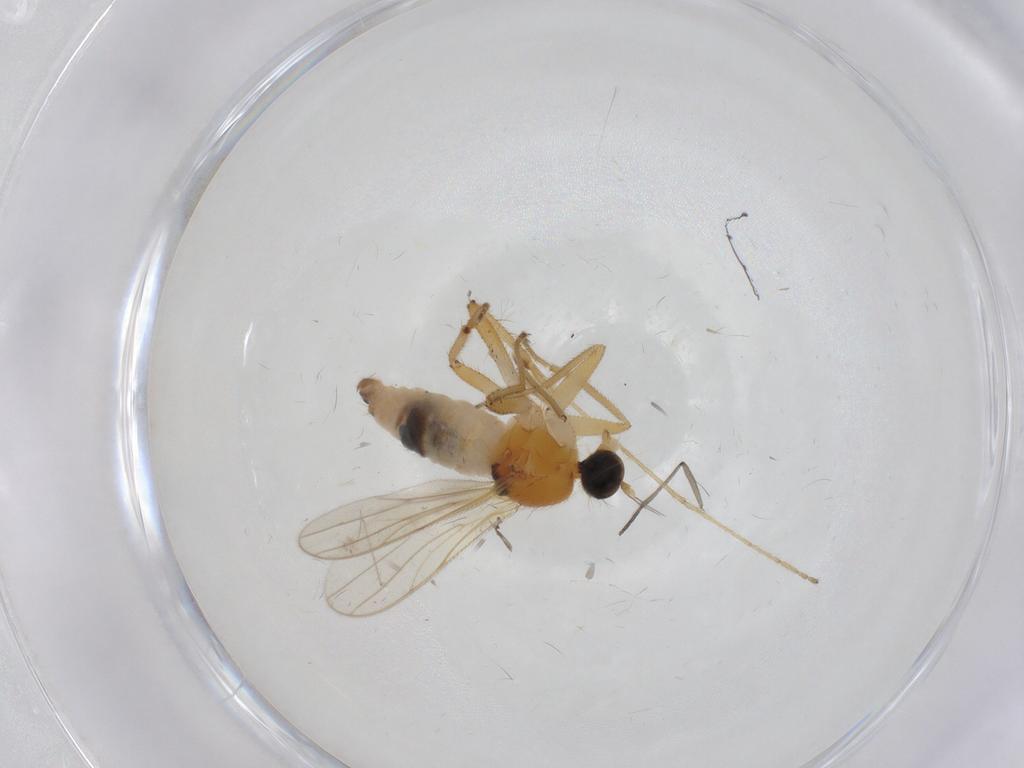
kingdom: Animalia
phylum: Arthropoda
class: Insecta
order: Diptera
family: Hybotidae
